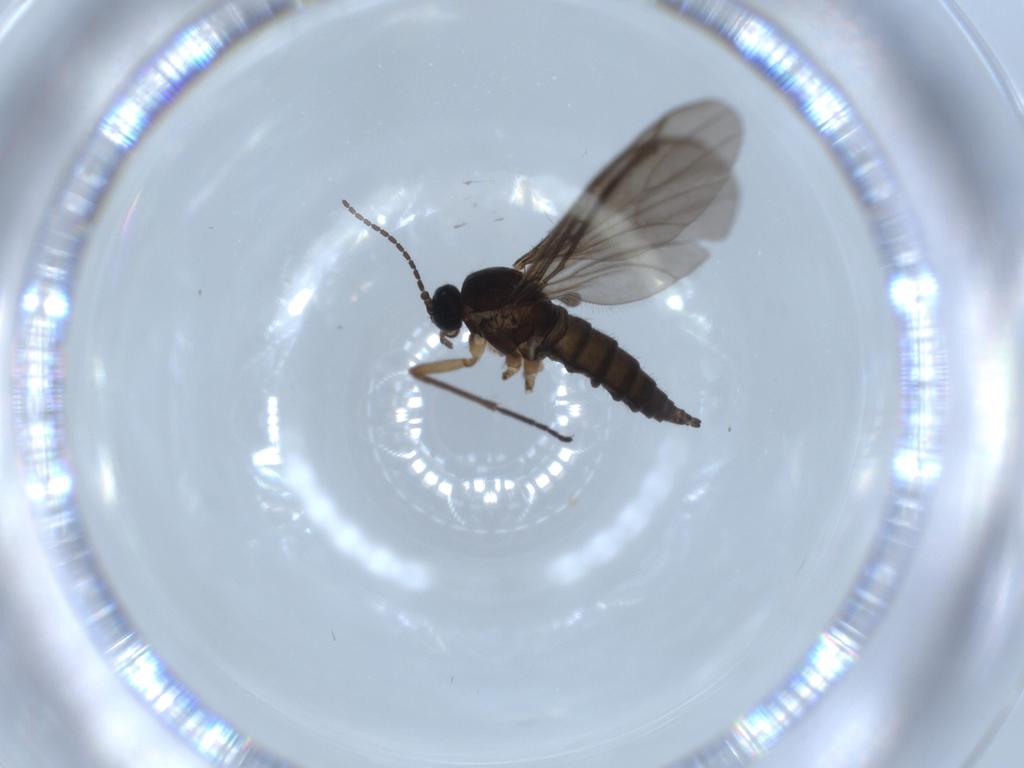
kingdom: Animalia
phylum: Arthropoda
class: Insecta
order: Diptera
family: Sciaridae
